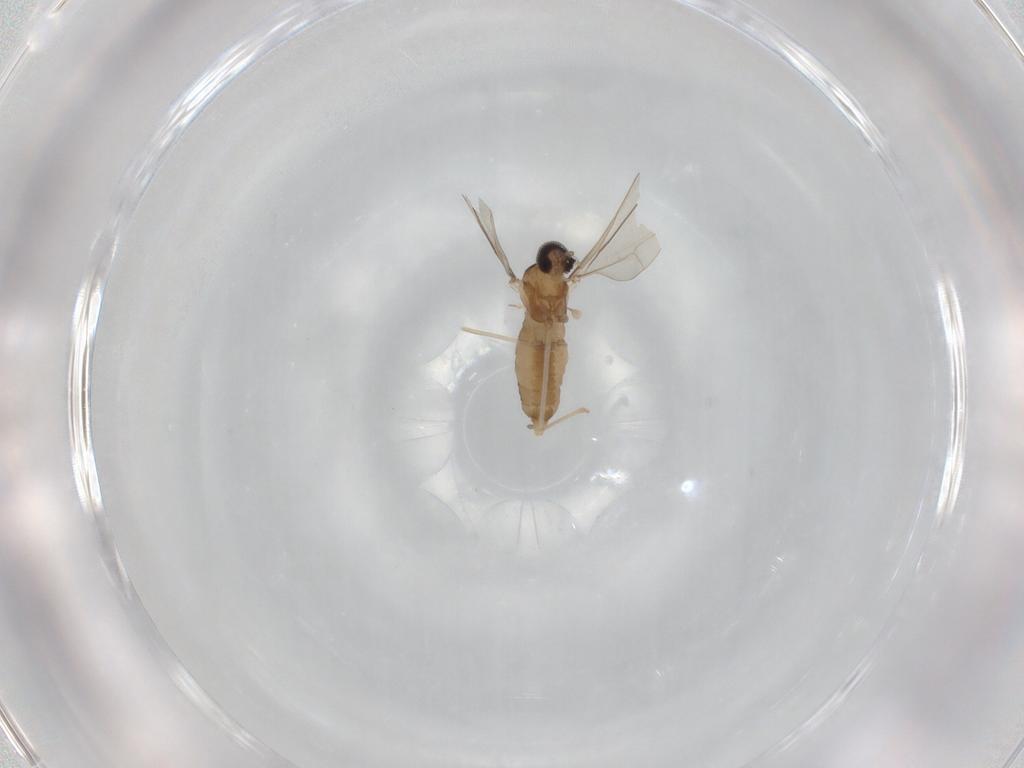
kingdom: Animalia
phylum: Arthropoda
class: Insecta
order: Diptera
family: Cecidomyiidae
